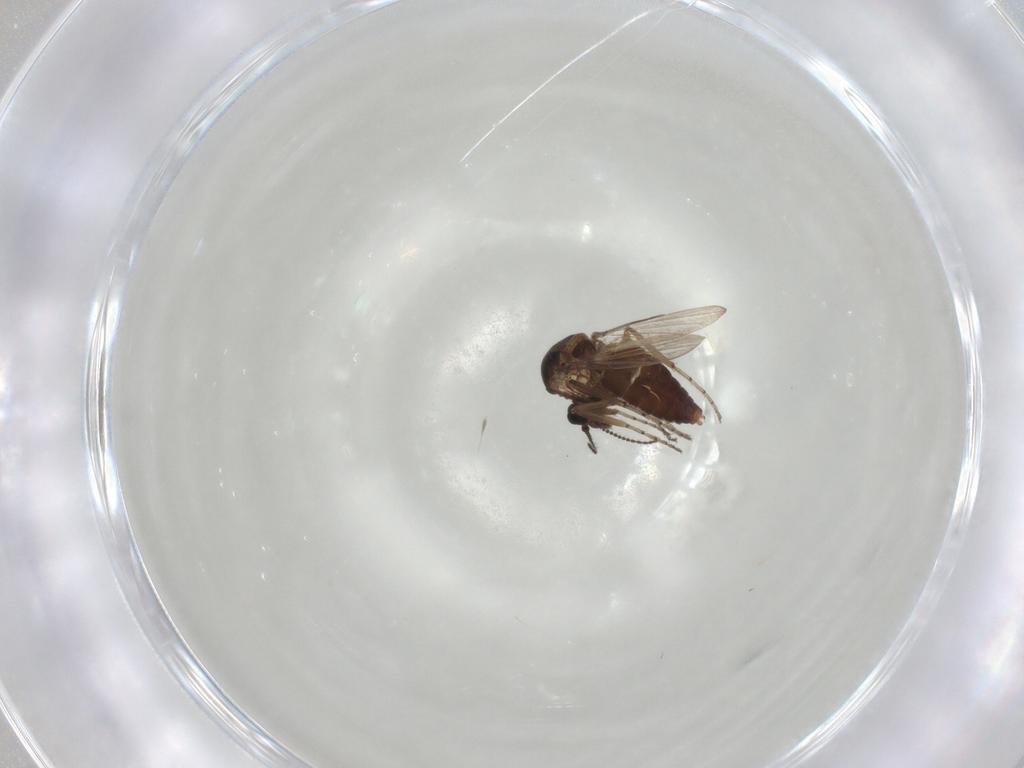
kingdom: Animalia
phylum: Arthropoda
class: Insecta
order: Diptera
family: Ceratopogonidae
